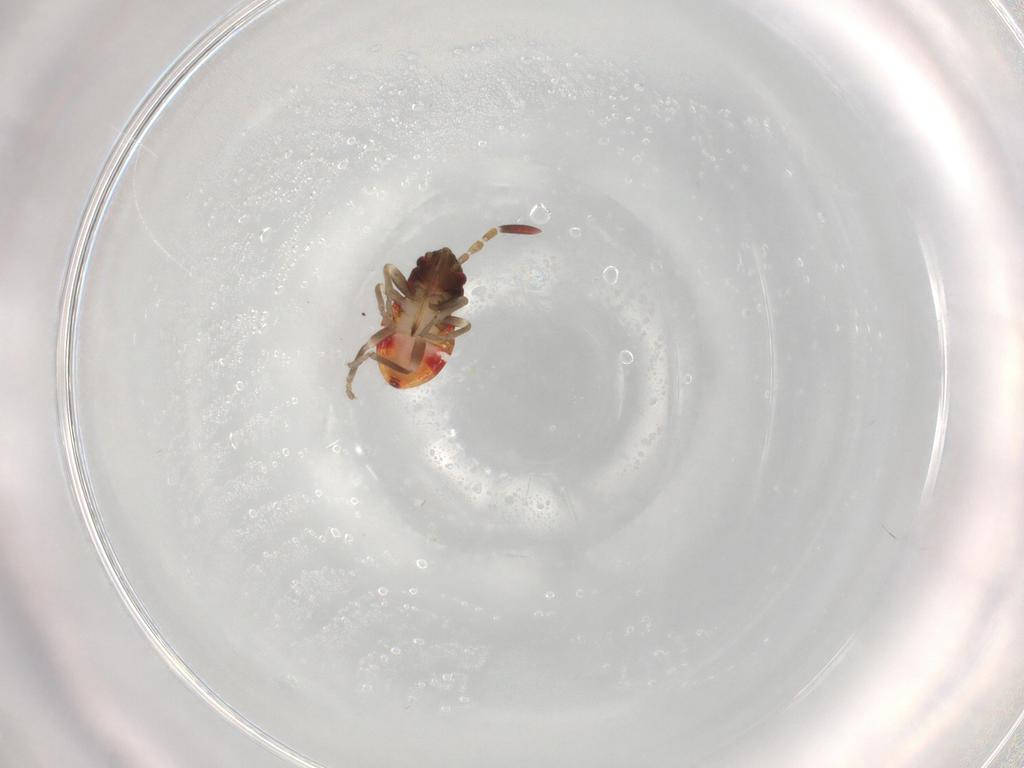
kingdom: Animalia
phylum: Arthropoda
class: Insecta
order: Hemiptera
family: Rhyparochromidae
